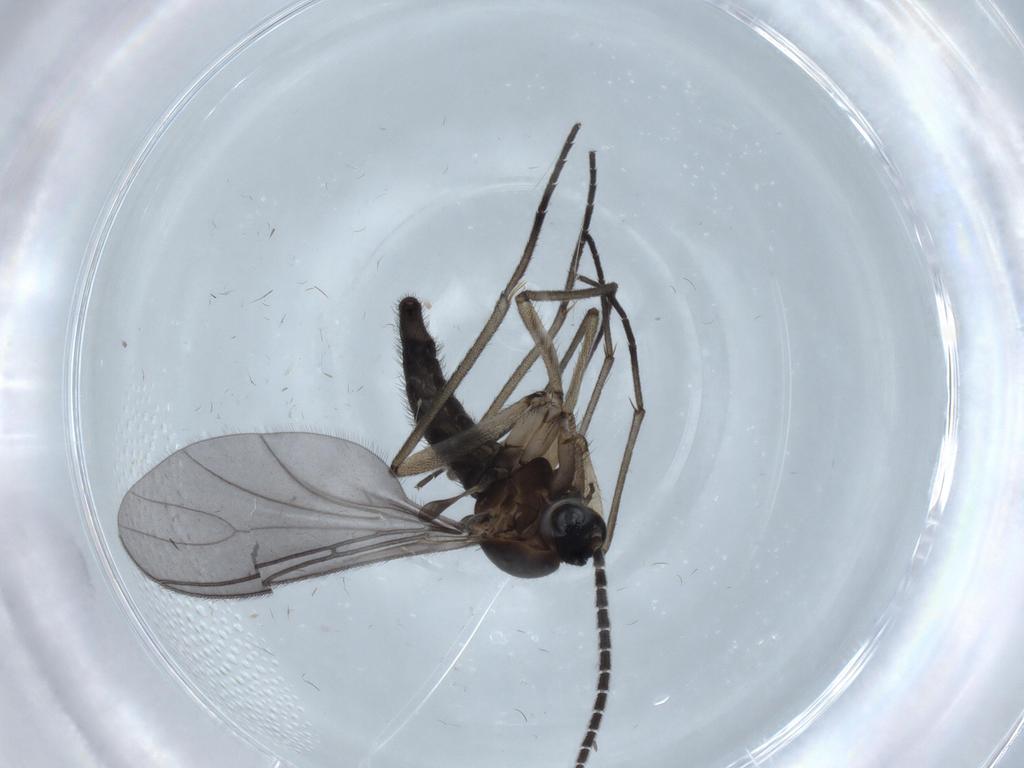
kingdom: Animalia
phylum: Arthropoda
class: Insecta
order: Diptera
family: Sciaridae
